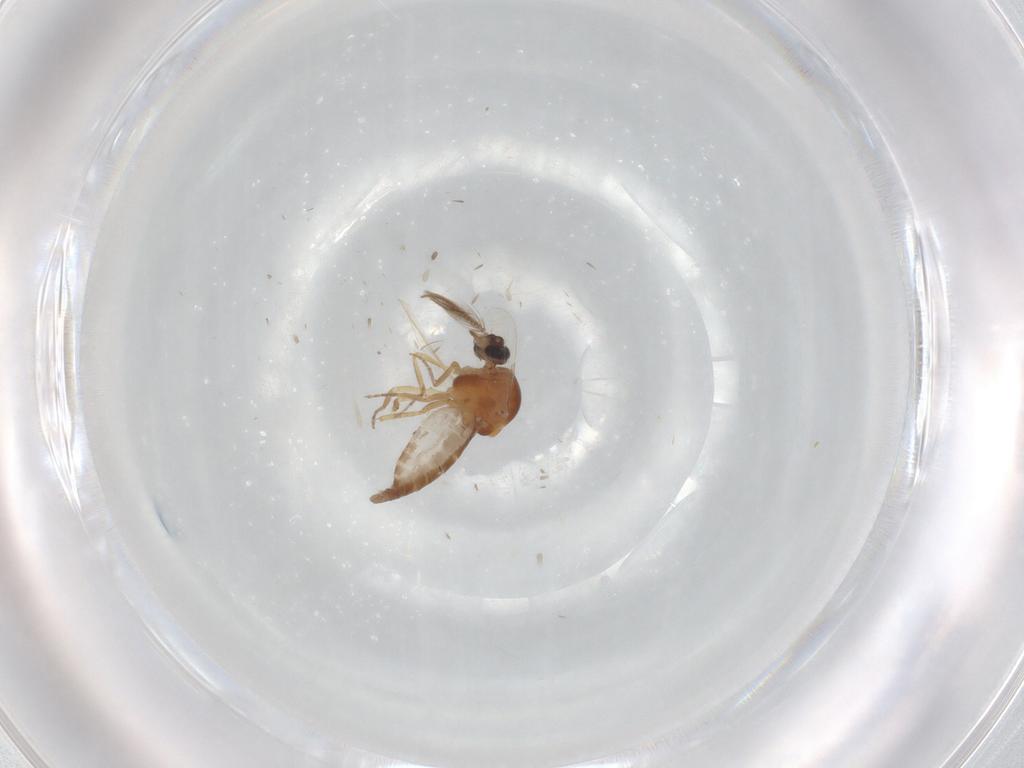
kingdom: Animalia
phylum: Arthropoda
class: Insecta
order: Diptera
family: Ceratopogonidae
